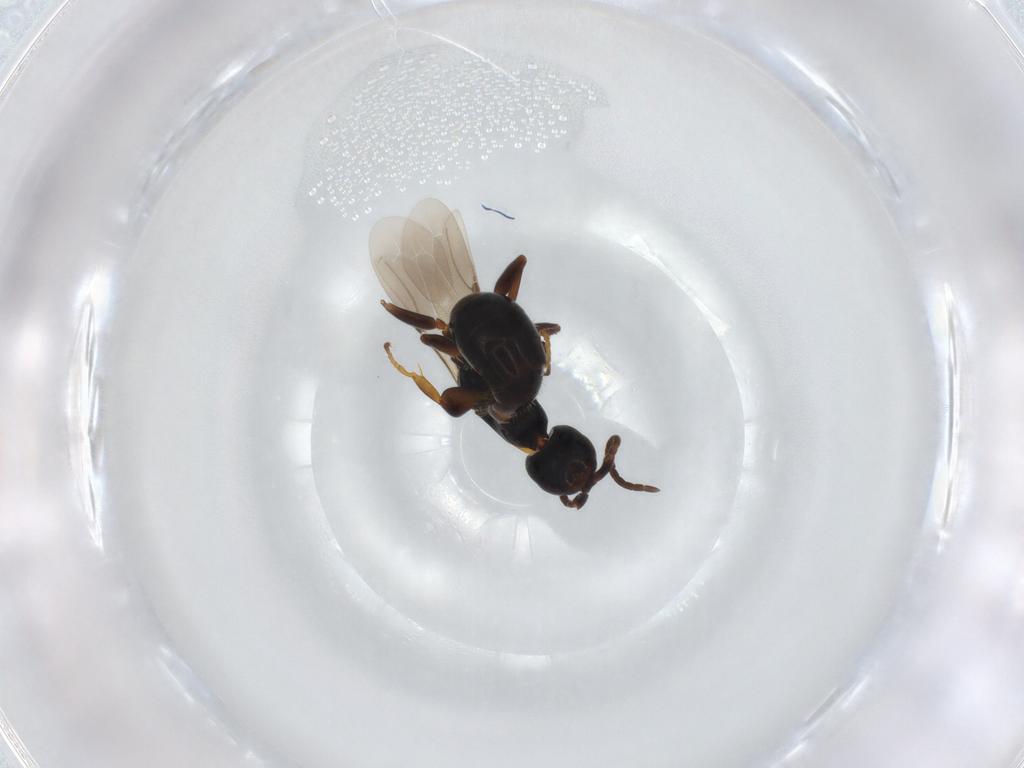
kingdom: Animalia
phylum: Arthropoda
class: Insecta
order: Hymenoptera
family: Bethylidae
